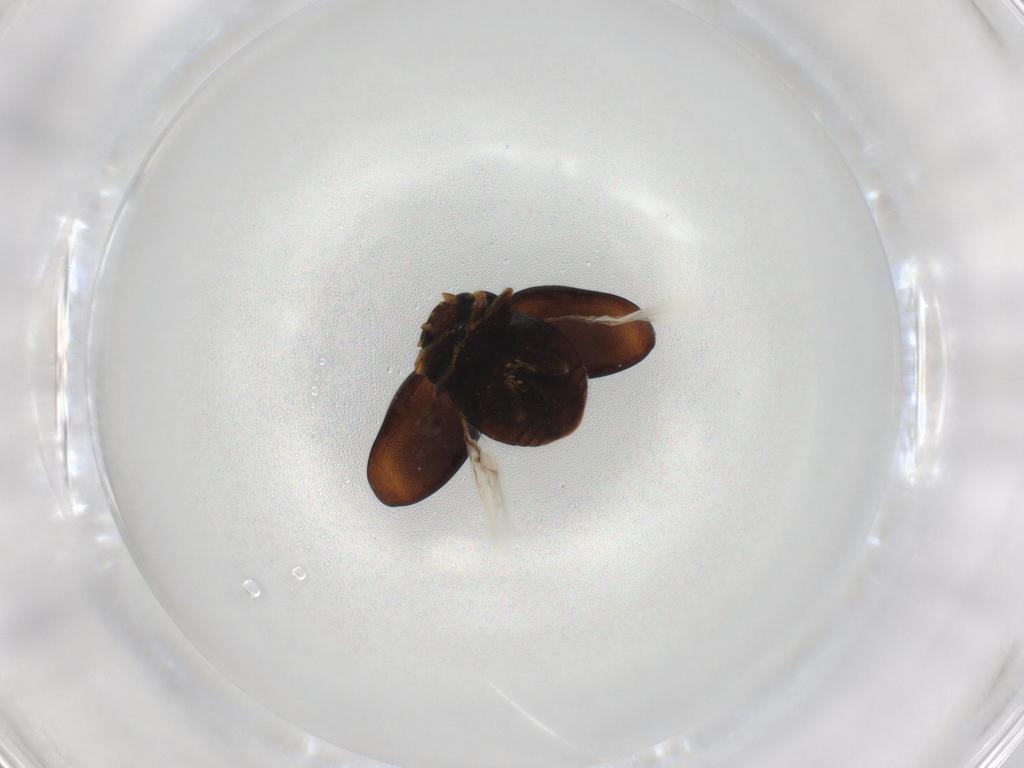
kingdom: Animalia
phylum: Arthropoda
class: Insecta
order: Coleoptera
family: Coccinellidae
